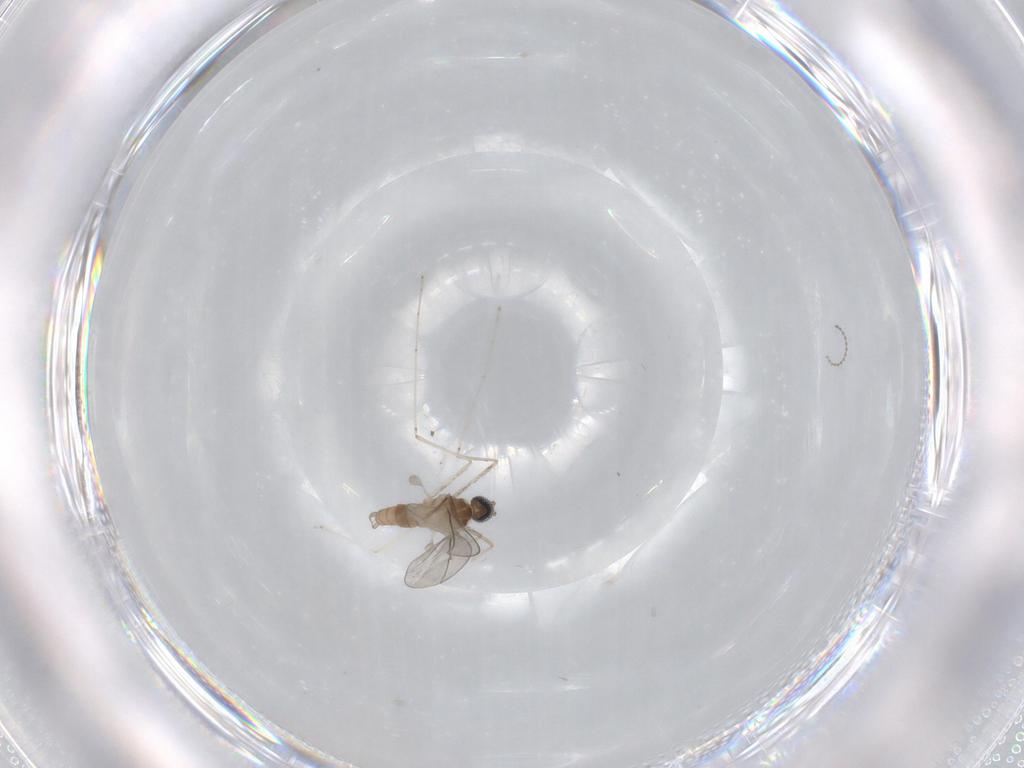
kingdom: Animalia
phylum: Arthropoda
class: Insecta
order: Diptera
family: Cecidomyiidae
